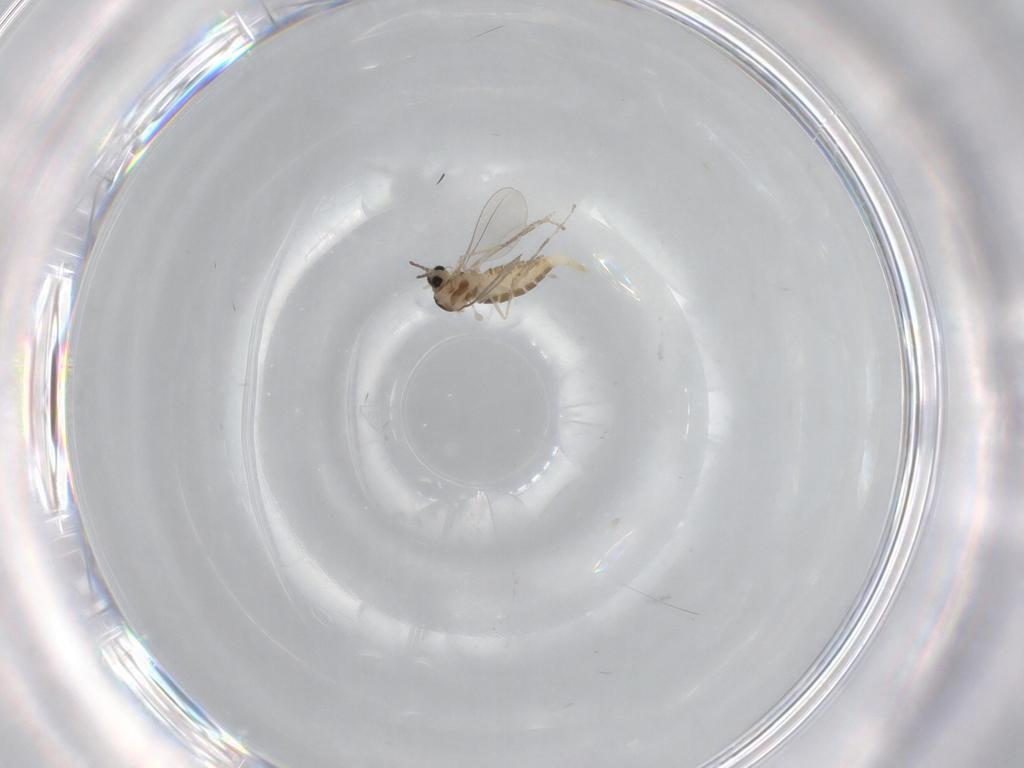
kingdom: Animalia
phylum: Arthropoda
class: Insecta
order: Diptera
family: Cecidomyiidae
